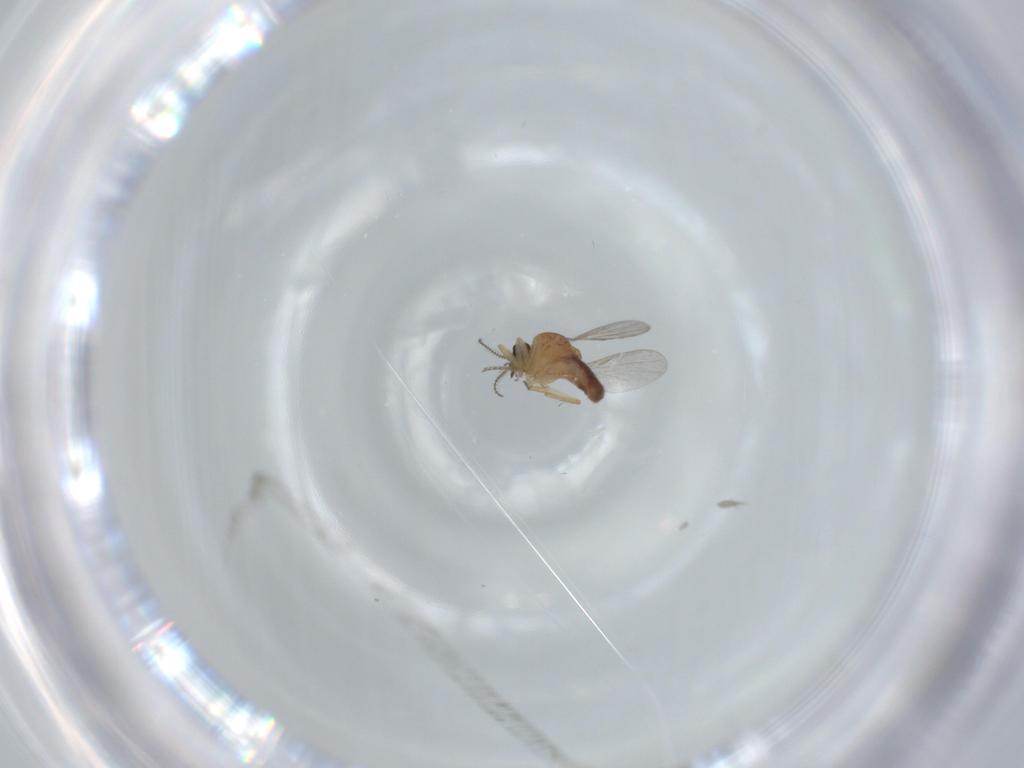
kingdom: Animalia
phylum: Arthropoda
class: Insecta
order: Diptera
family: Ceratopogonidae
